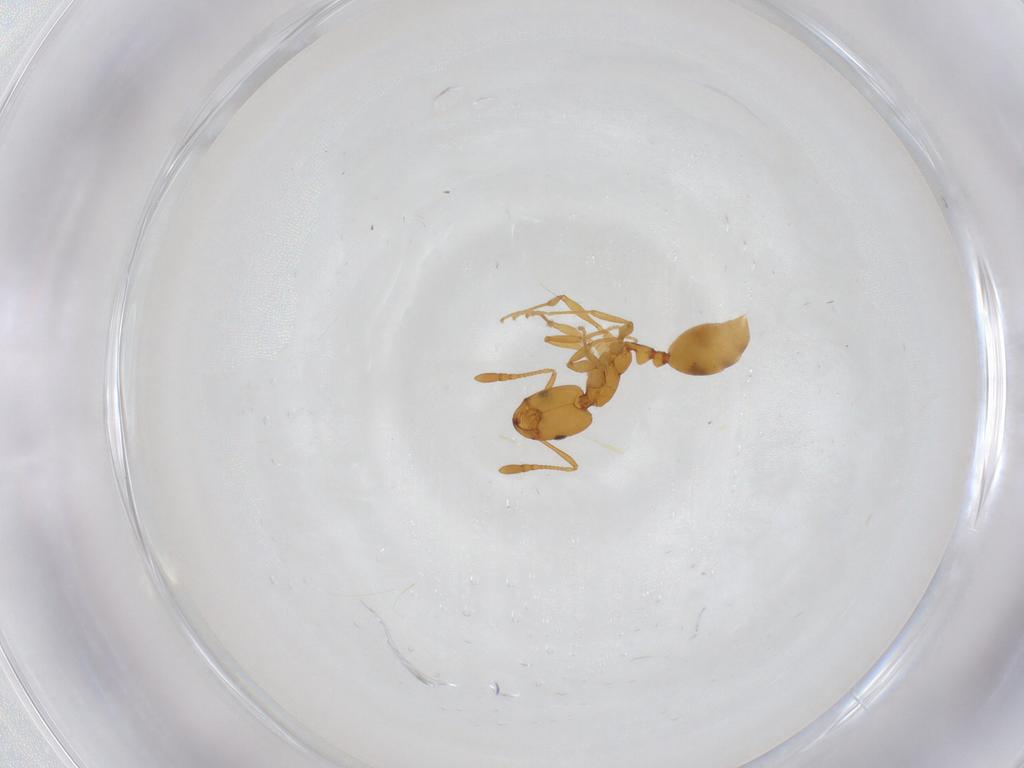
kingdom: Animalia
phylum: Arthropoda
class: Insecta
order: Hymenoptera
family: Formicidae
